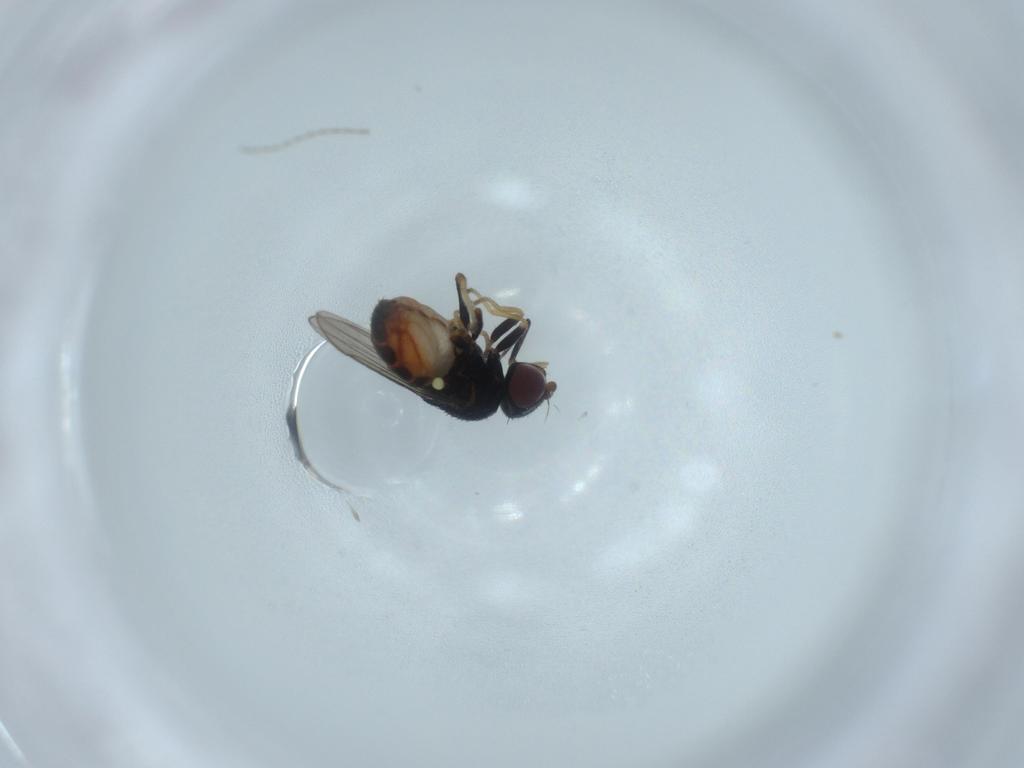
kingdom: Animalia
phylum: Arthropoda
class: Insecta
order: Diptera
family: Chloropidae
